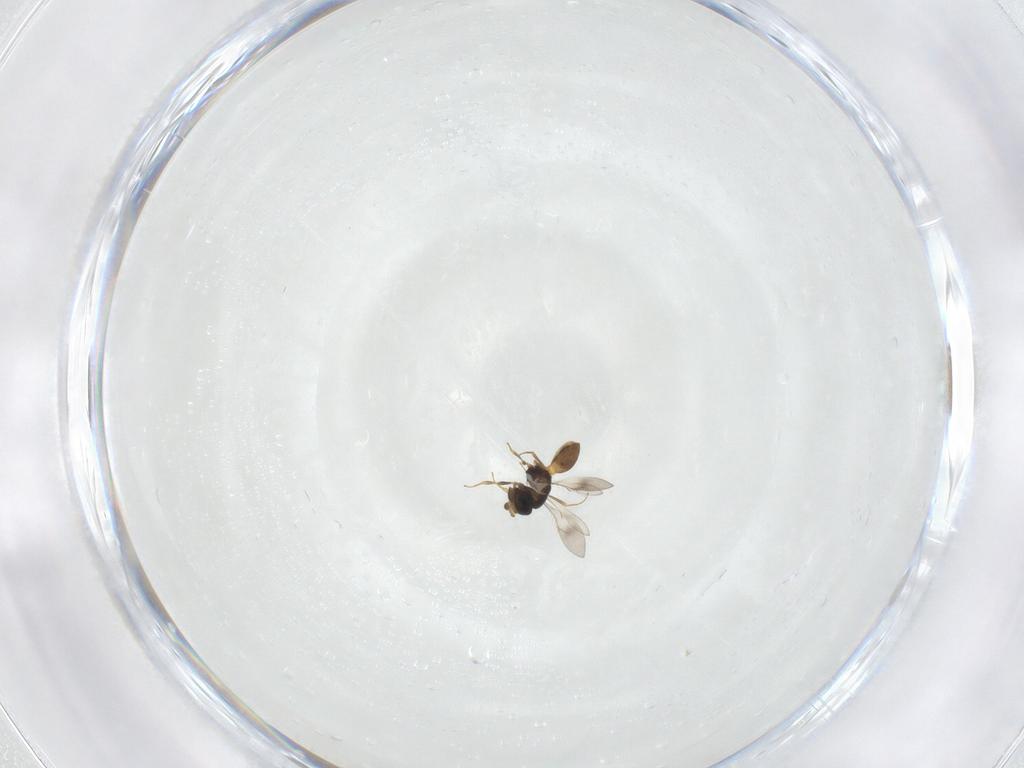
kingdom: Animalia
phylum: Arthropoda
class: Insecta
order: Hymenoptera
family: Scelionidae
